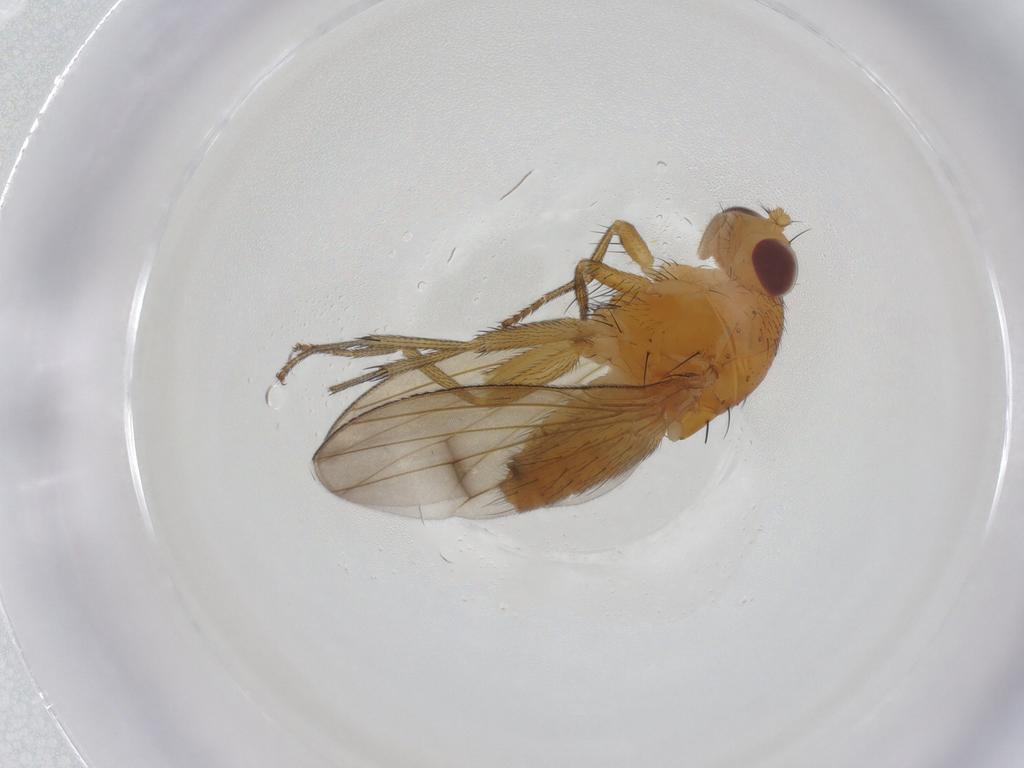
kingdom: Animalia
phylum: Arthropoda
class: Insecta
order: Diptera
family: Lauxaniidae
